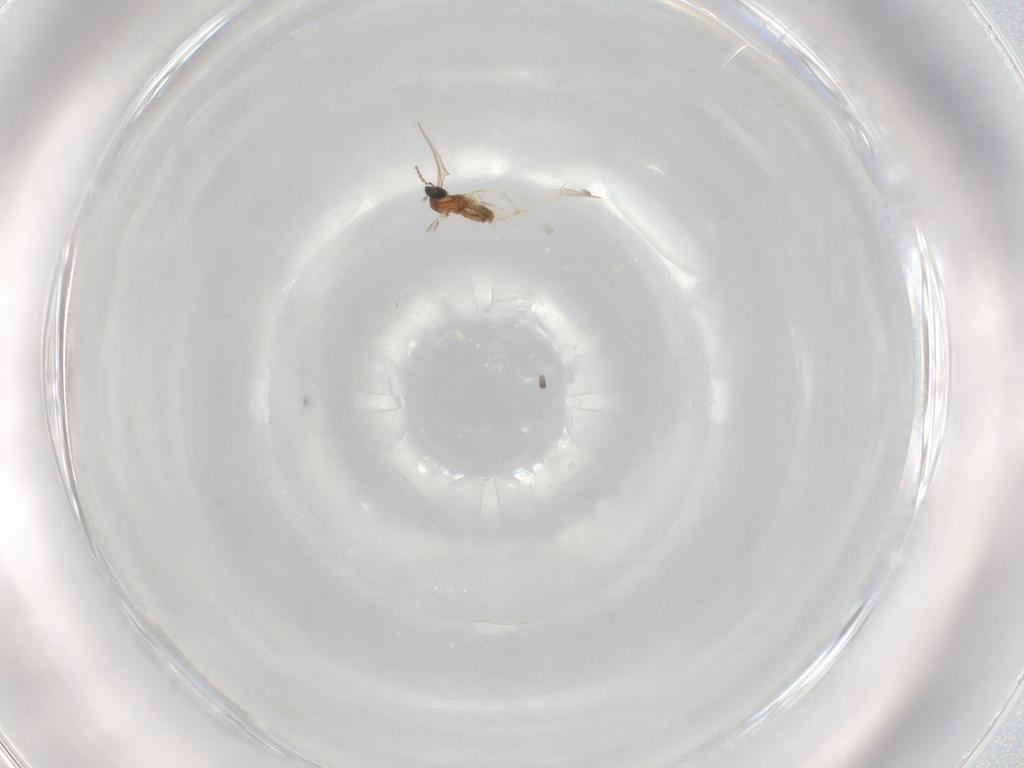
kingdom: Animalia
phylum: Arthropoda
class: Insecta
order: Diptera
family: Cecidomyiidae
